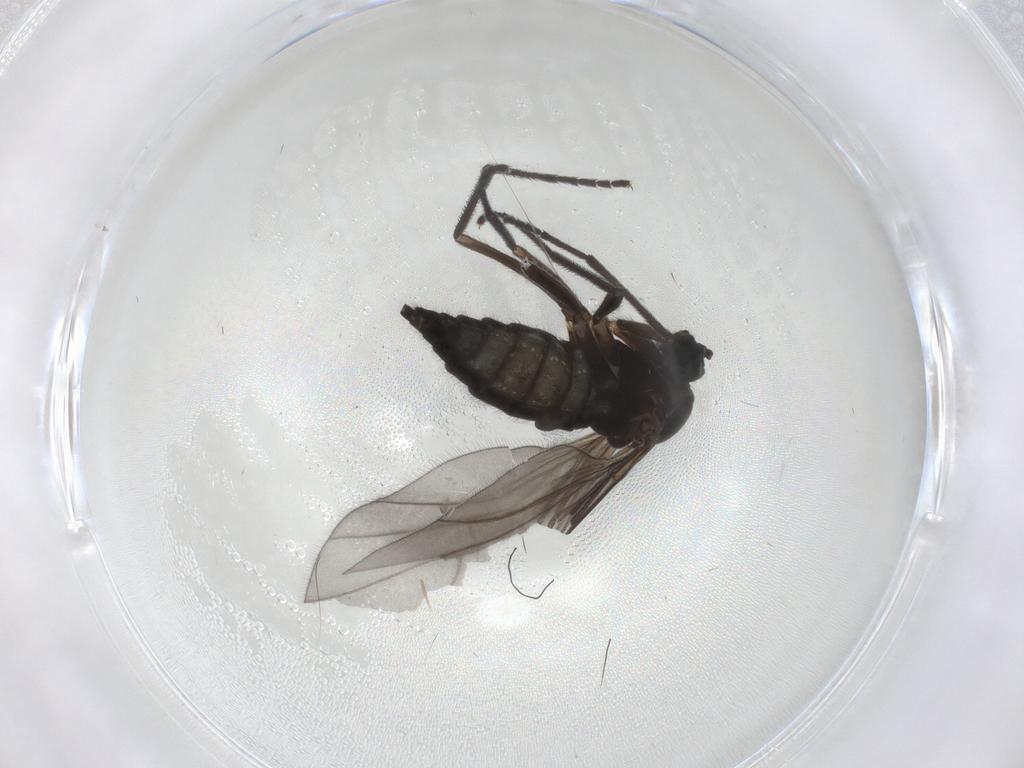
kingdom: Animalia
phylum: Arthropoda
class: Insecta
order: Diptera
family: Sciaridae
